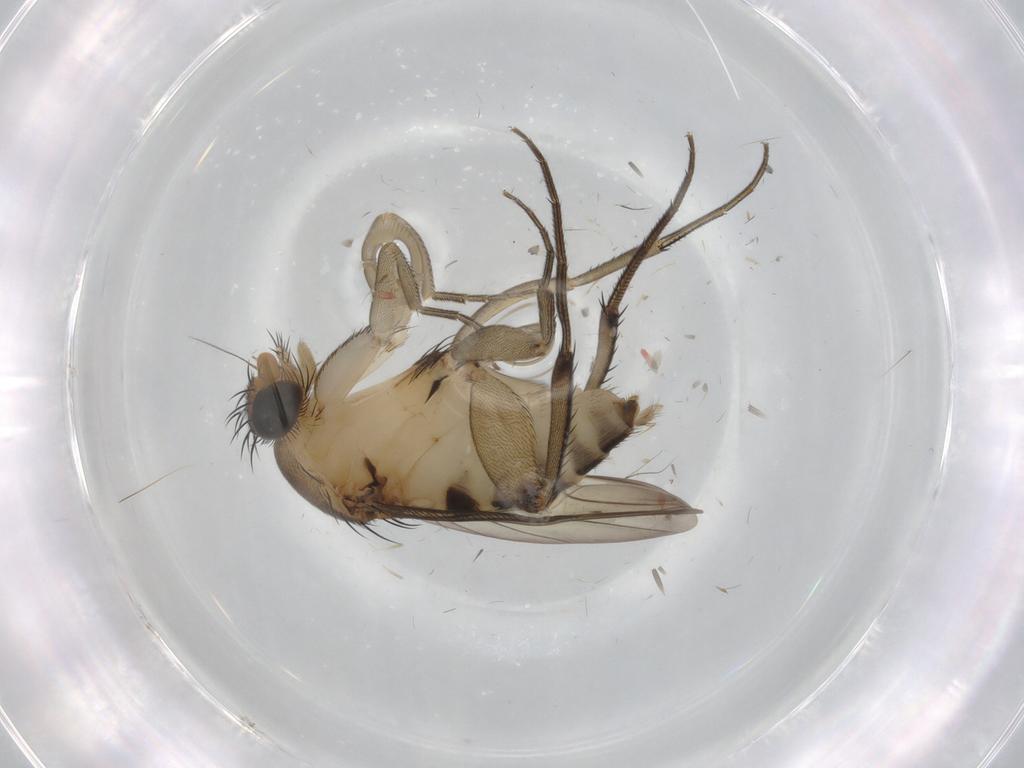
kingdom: Animalia
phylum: Arthropoda
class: Insecta
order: Diptera
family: Phoridae
